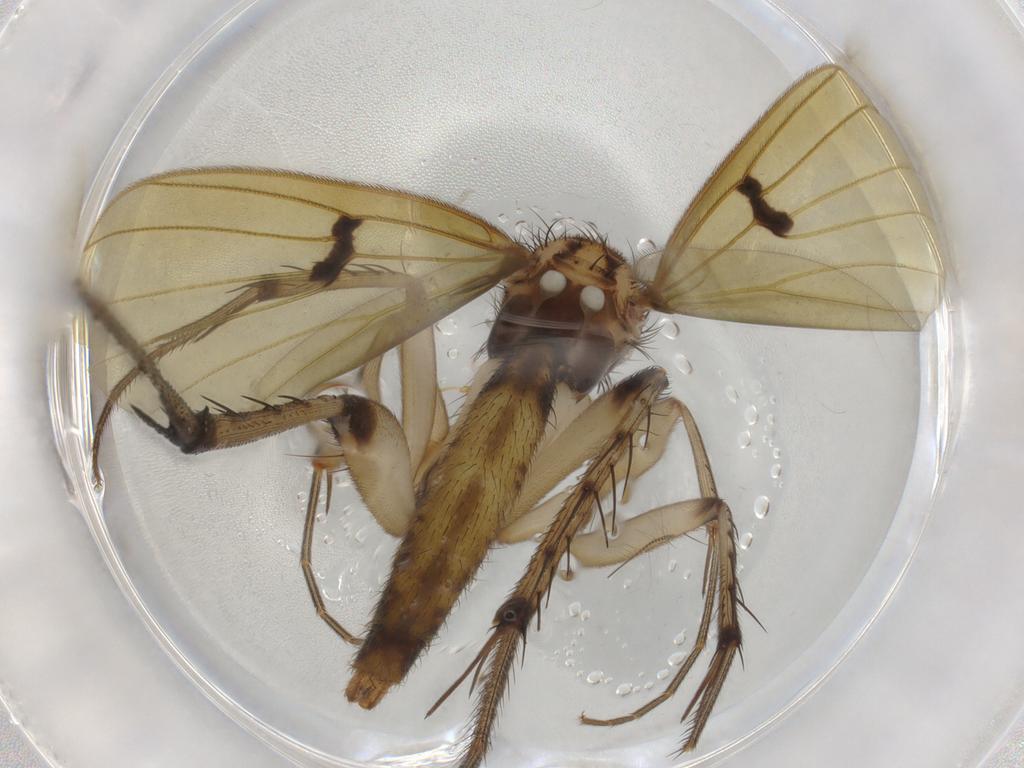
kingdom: Animalia
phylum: Arthropoda
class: Insecta
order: Diptera
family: Chironomidae
